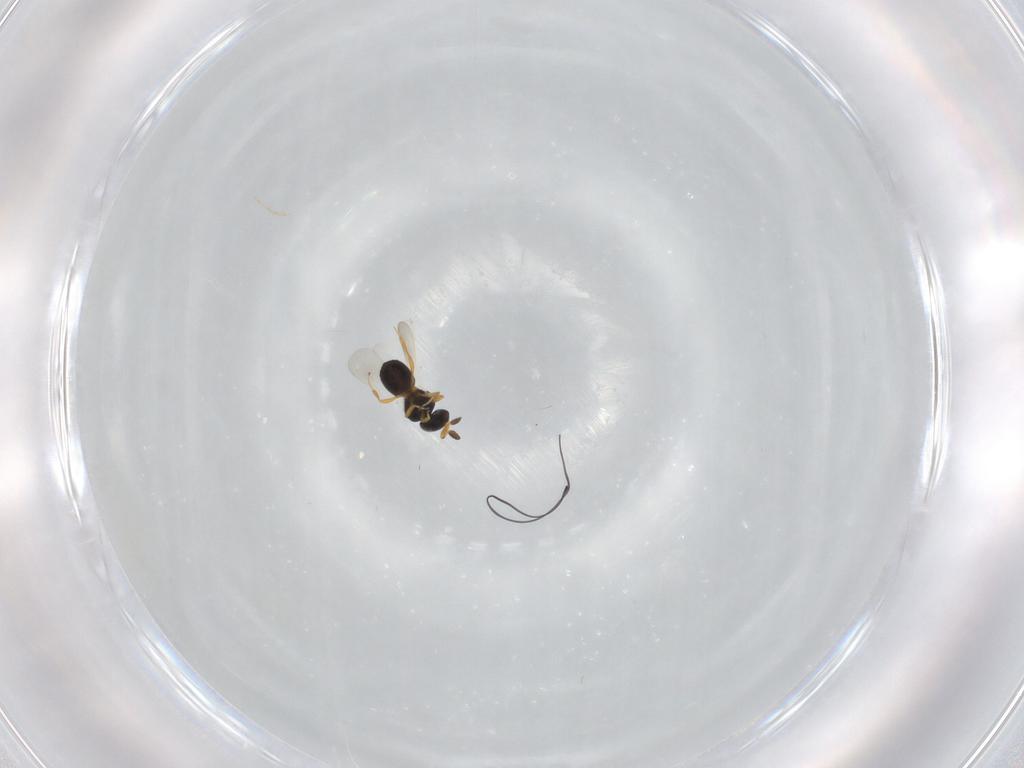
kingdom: Animalia
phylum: Arthropoda
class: Insecta
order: Hymenoptera
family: Platygastridae
